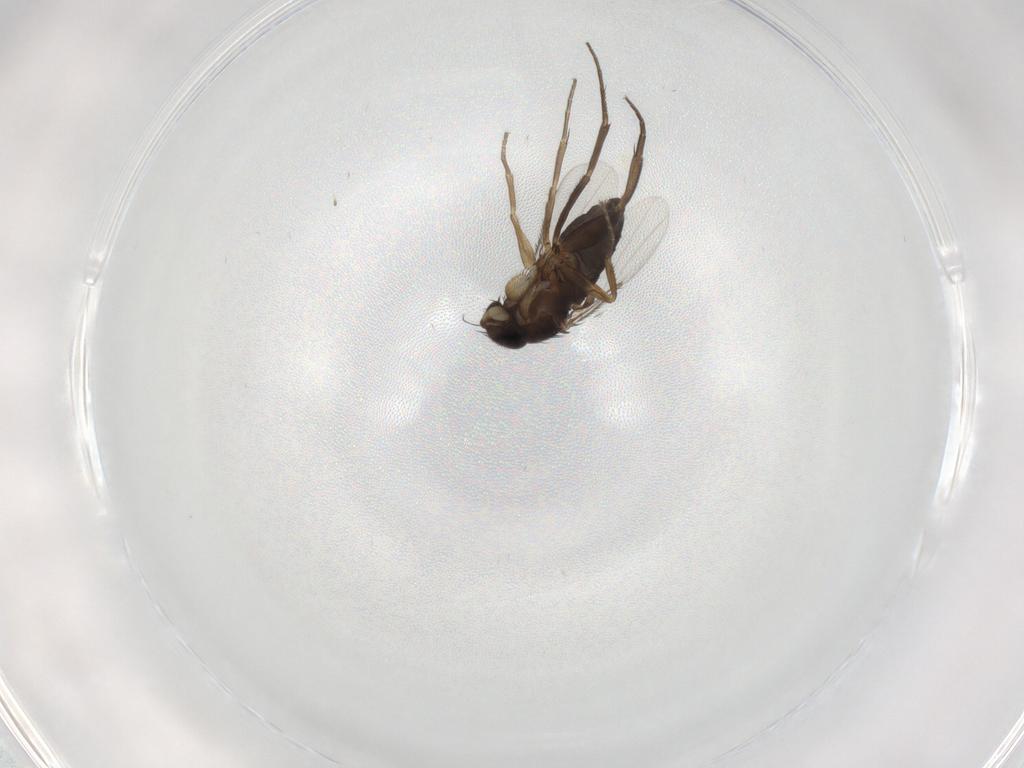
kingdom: Animalia
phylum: Arthropoda
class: Insecta
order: Diptera
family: Phoridae
